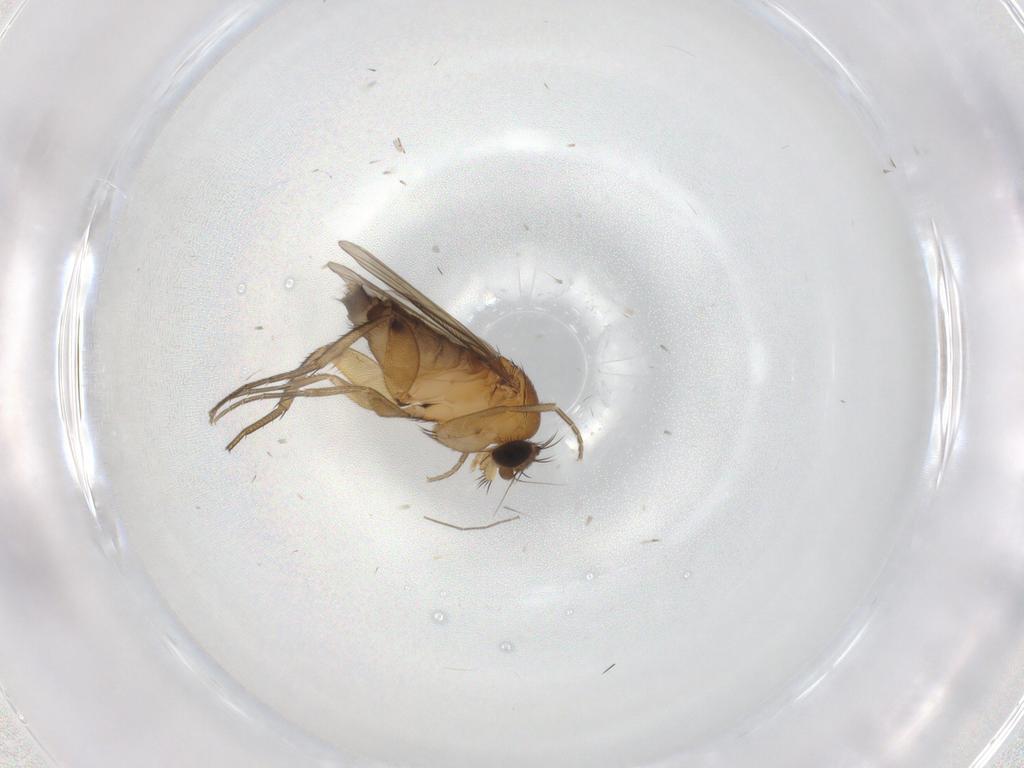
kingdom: Animalia
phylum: Arthropoda
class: Insecta
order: Diptera
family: Phoridae
